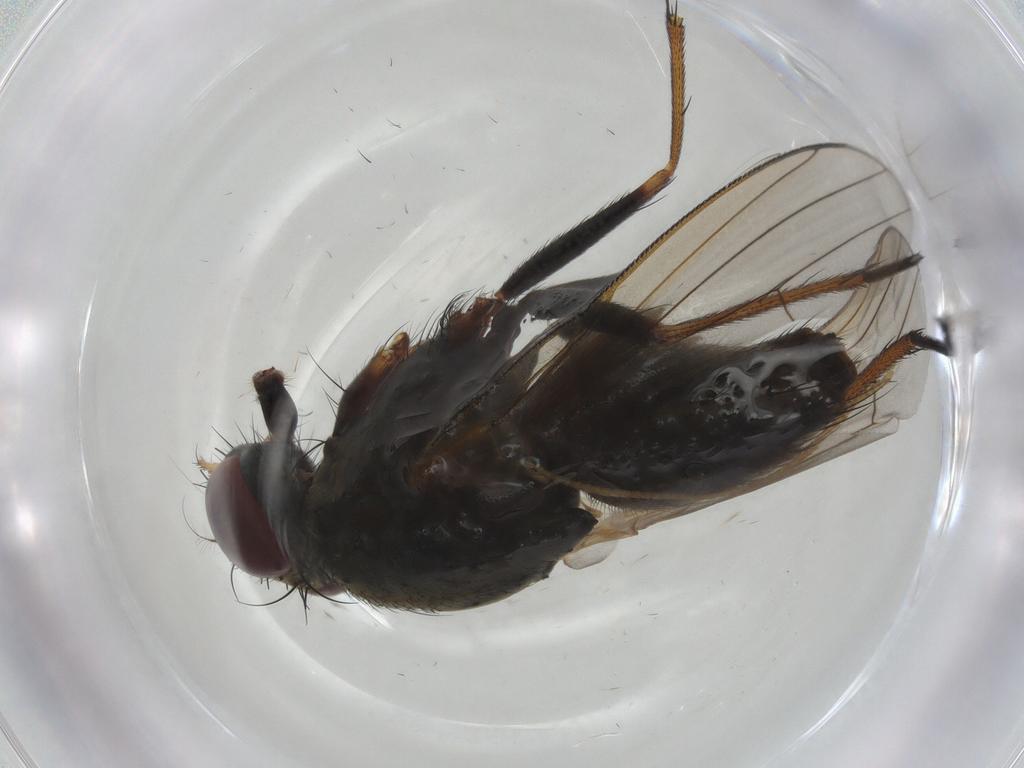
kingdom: Animalia
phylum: Arthropoda
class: Insecta
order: Diptera
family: Muscidae
